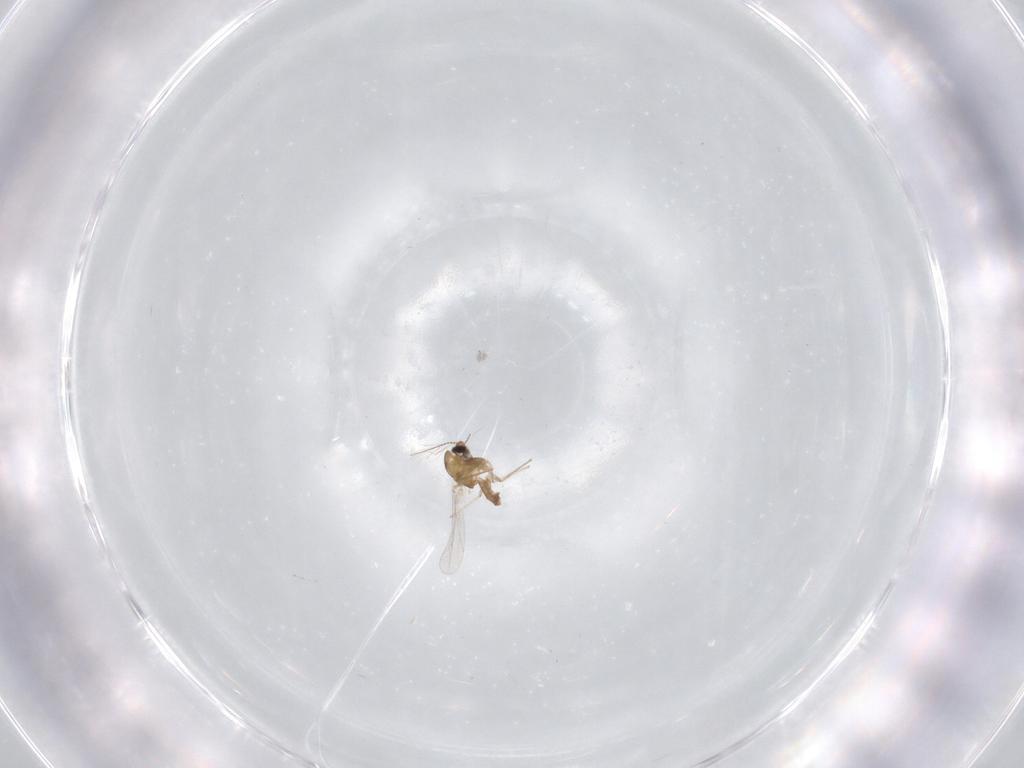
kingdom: Animalia
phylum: Arthropoda
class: Insecta
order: Diptera
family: Chironomidae
